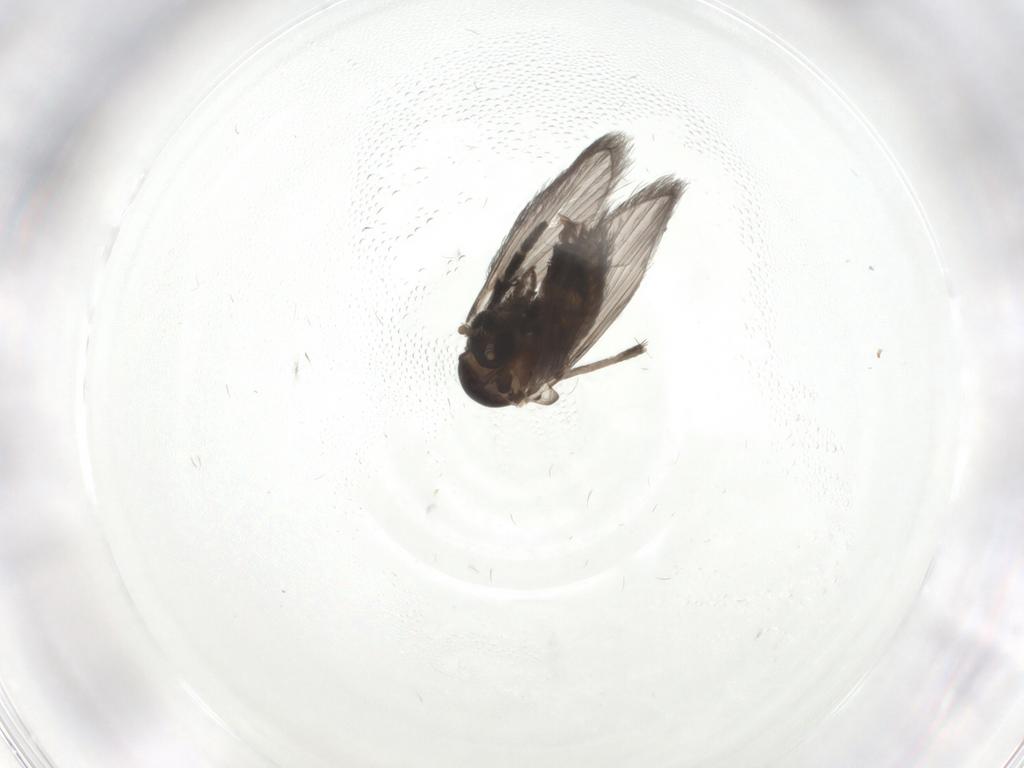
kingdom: Animalia
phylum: Arthropoda
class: Insecta
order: Diptera
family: Psychodidae
